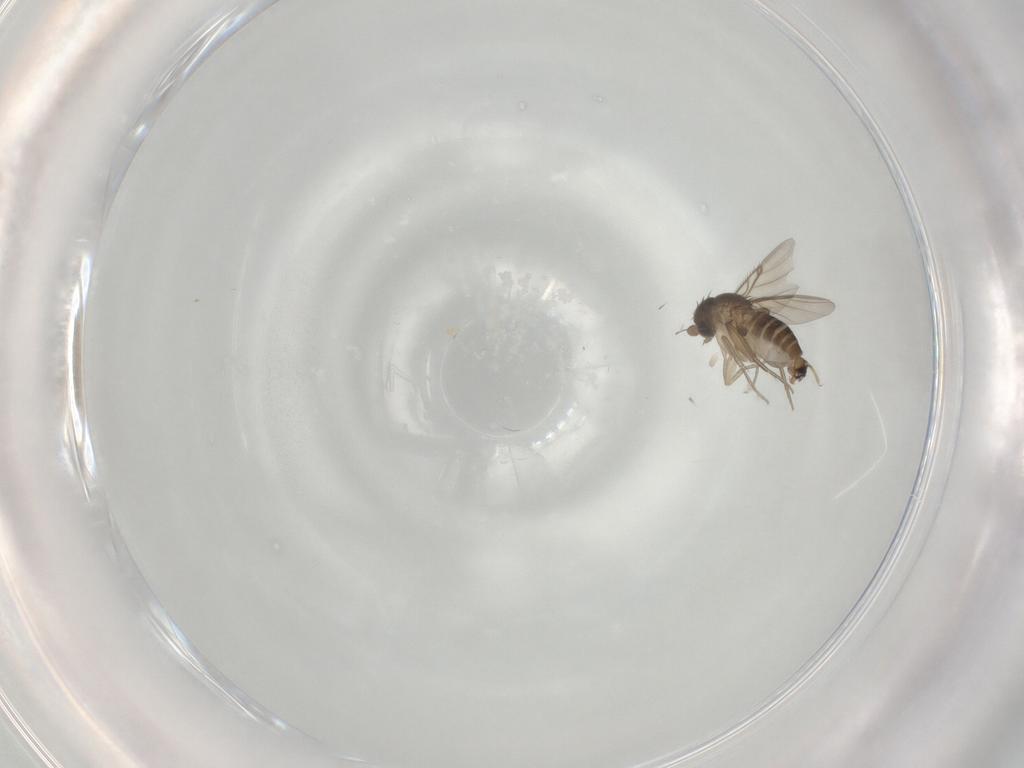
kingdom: Animalia
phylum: Arthropoda
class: Insecta
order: Diptera
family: Phoridae
